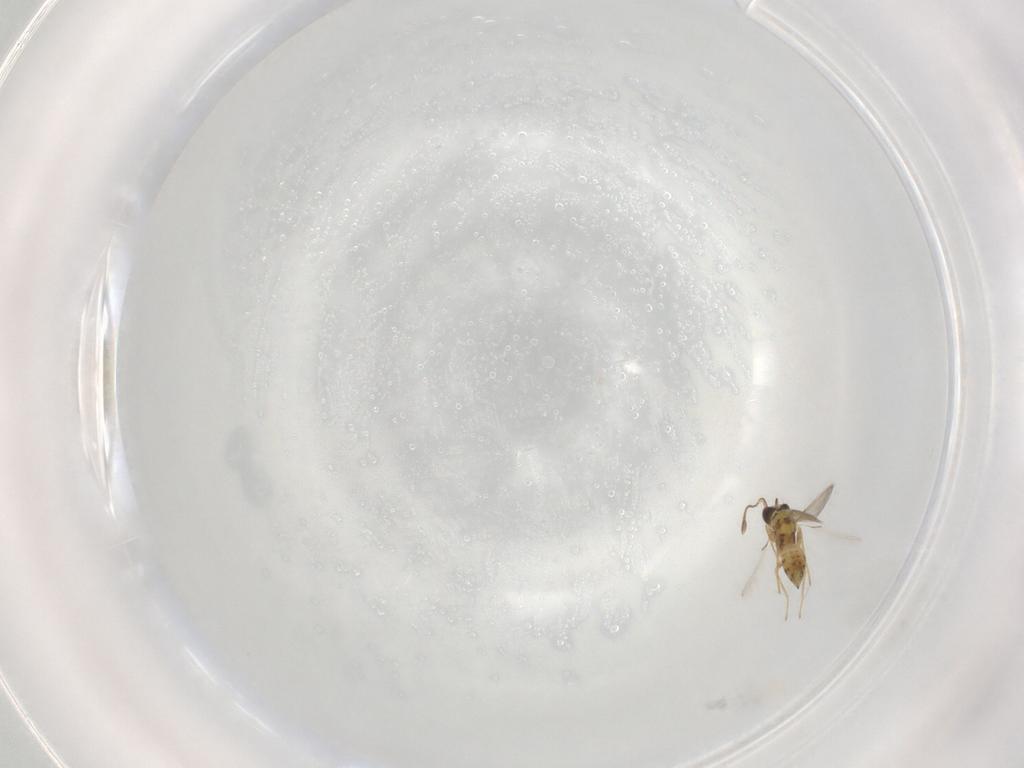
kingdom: Animalia
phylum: Arthropoda
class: Insecta
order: Hymenoptera
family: Mymaridae
